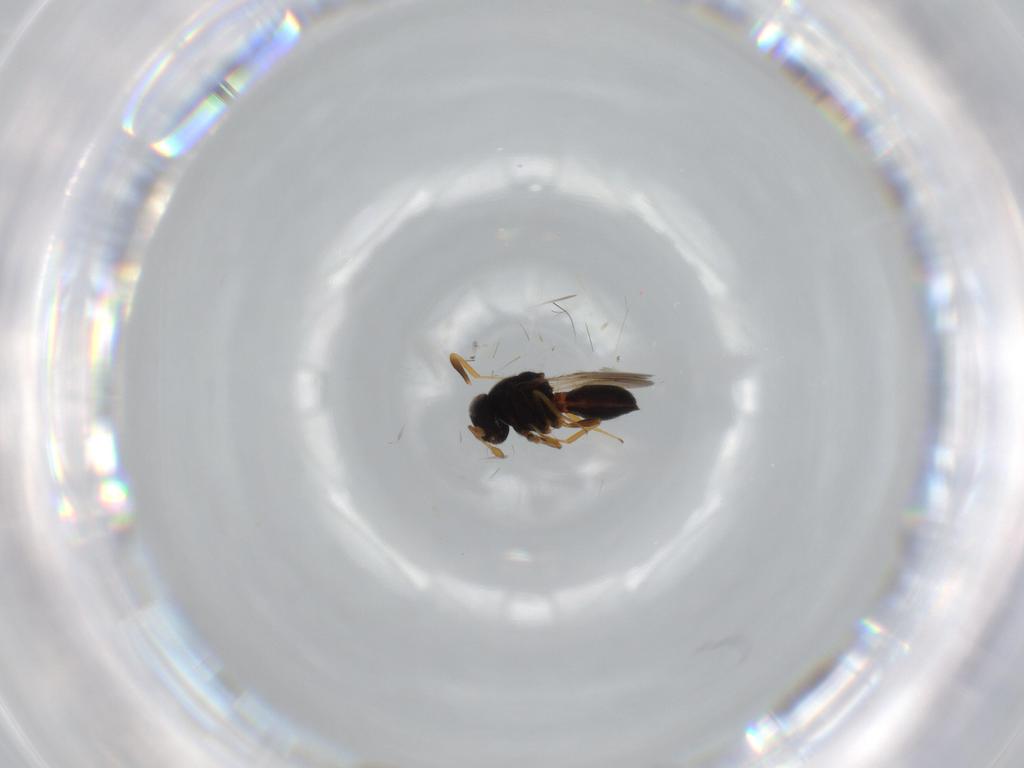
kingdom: Animalia
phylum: Arthropoda
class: Insecta
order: Hymenoptera
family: Scelionidae
